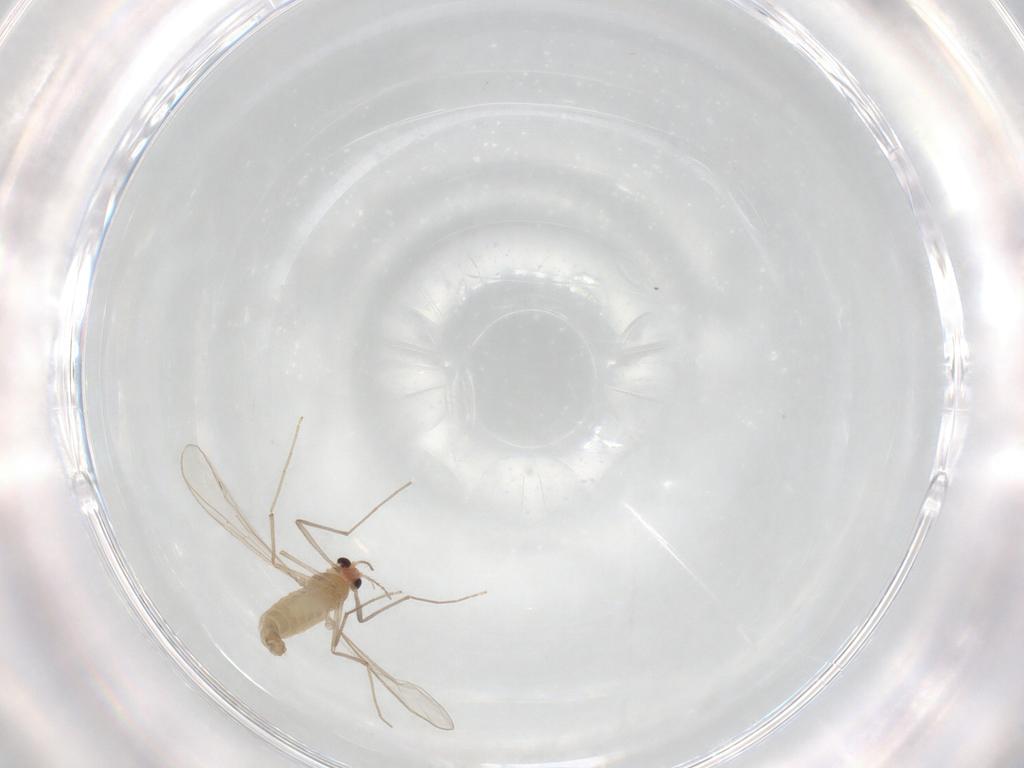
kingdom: Animalia
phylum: Arthropoda
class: Insecta
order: Diptera
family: Chironomidae
